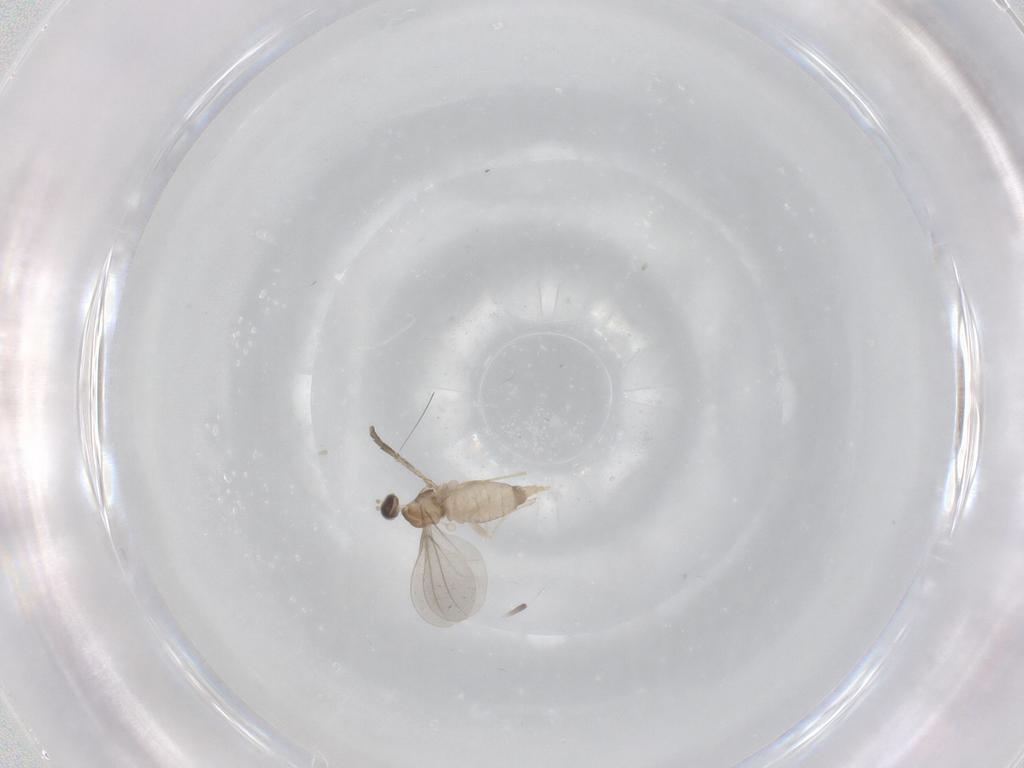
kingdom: Animalia
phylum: Arthropoda
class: Insecta
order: Diptera
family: Cecidomyiidae
